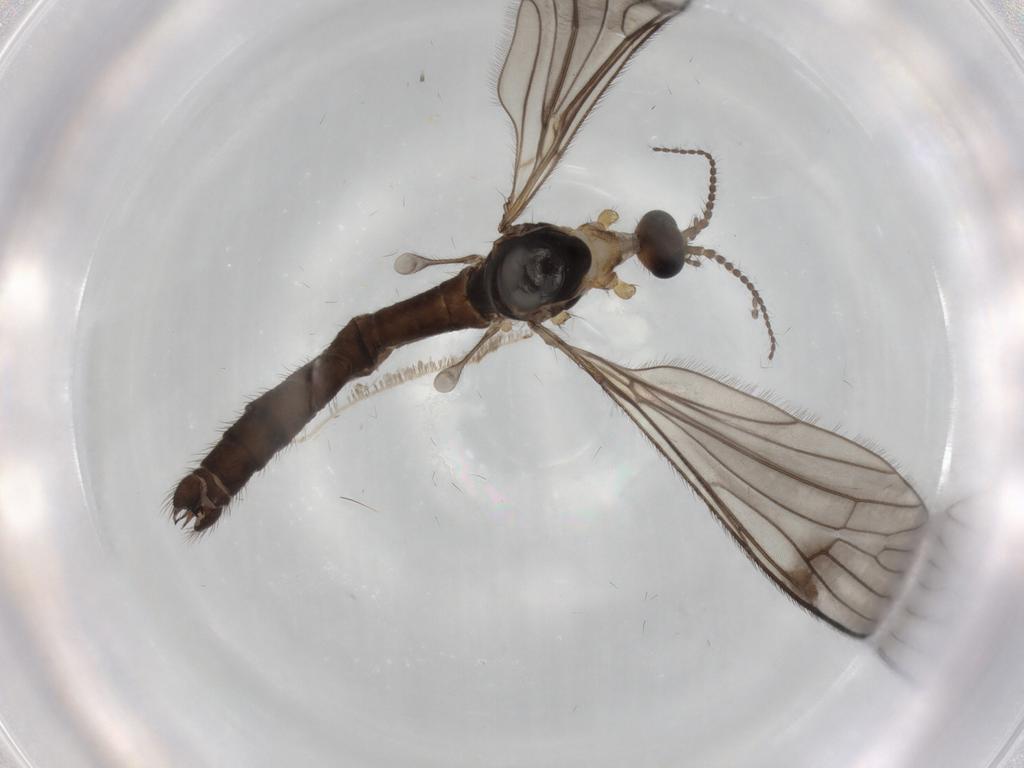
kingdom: Animalia
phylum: Arthropoda
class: Insecta
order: Diptera
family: Limoniidae
